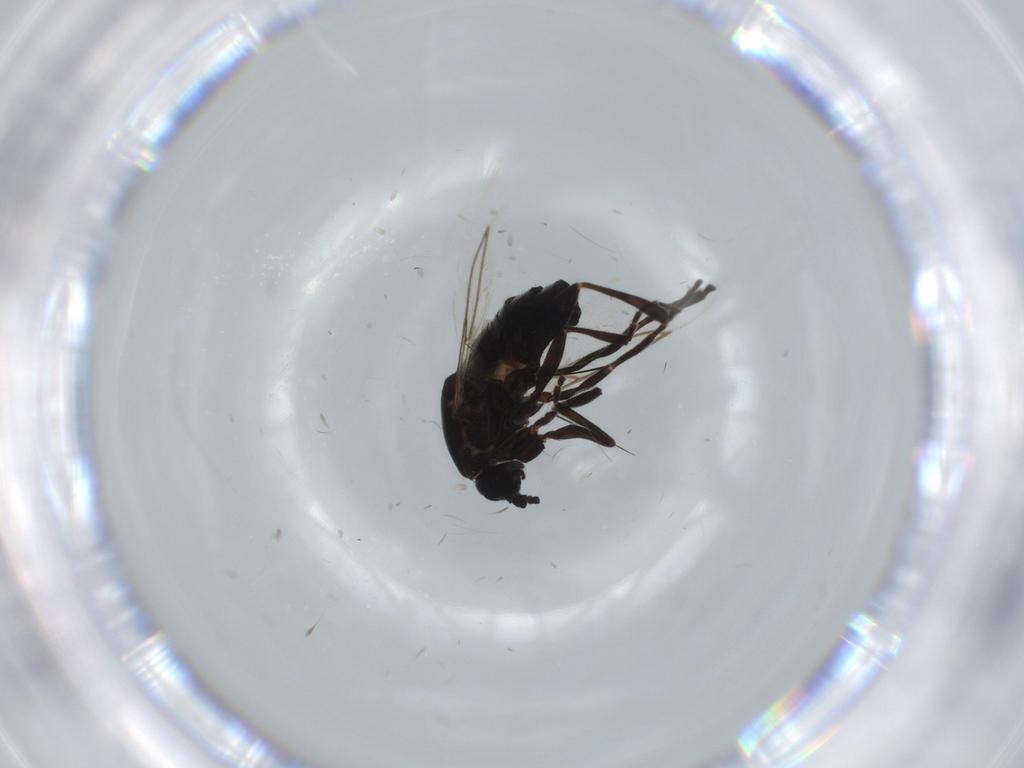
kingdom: Animalia
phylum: Arthropoda
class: Insecta
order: Diptera
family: Scatopsidae
